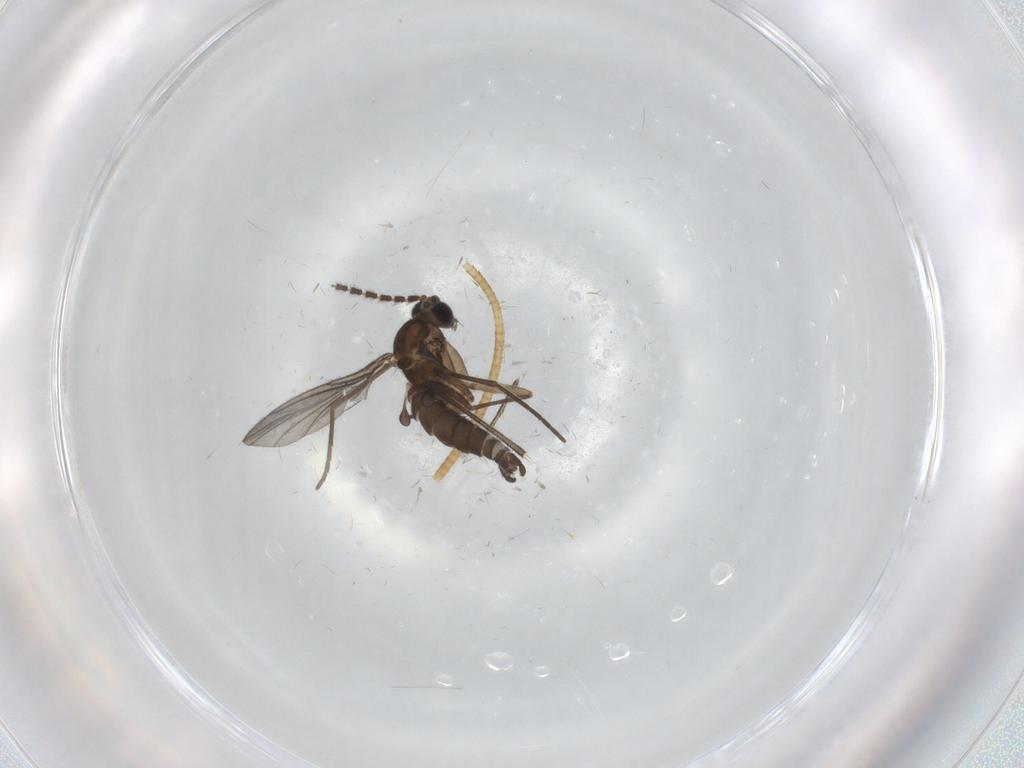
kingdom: Animalia
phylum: Arthropoda
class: Insecta
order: Diptera
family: Sciaridae
